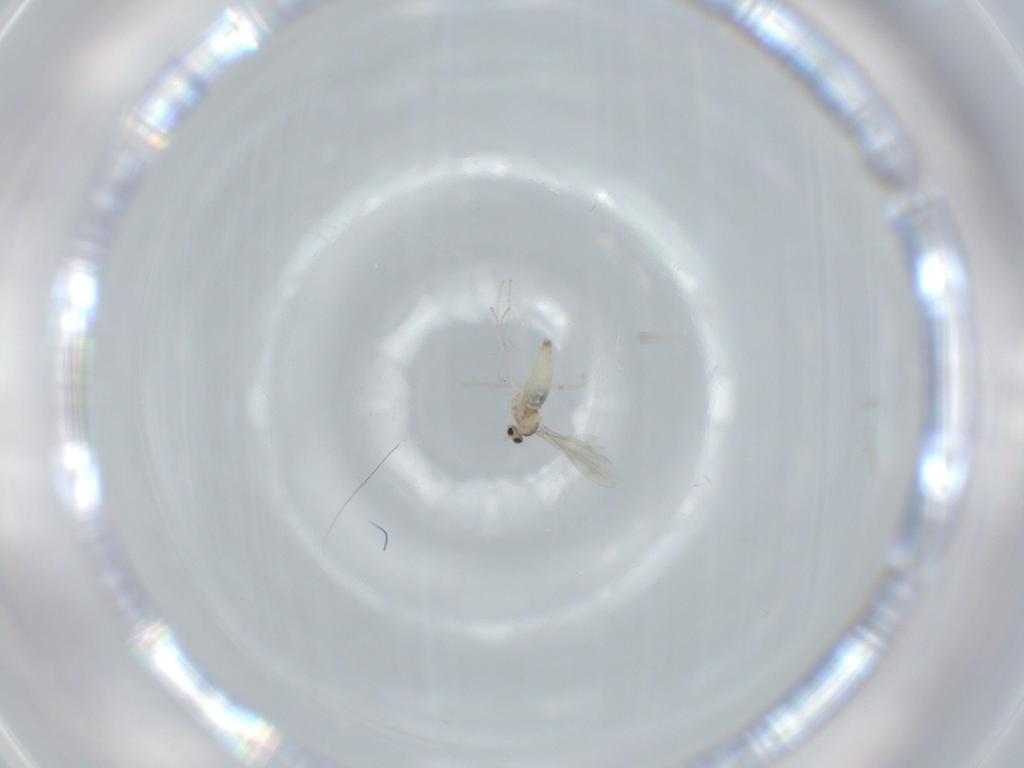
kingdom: Animalia
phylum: Arthropoda
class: Insecta
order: Diptera
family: Cecidomyiidae
